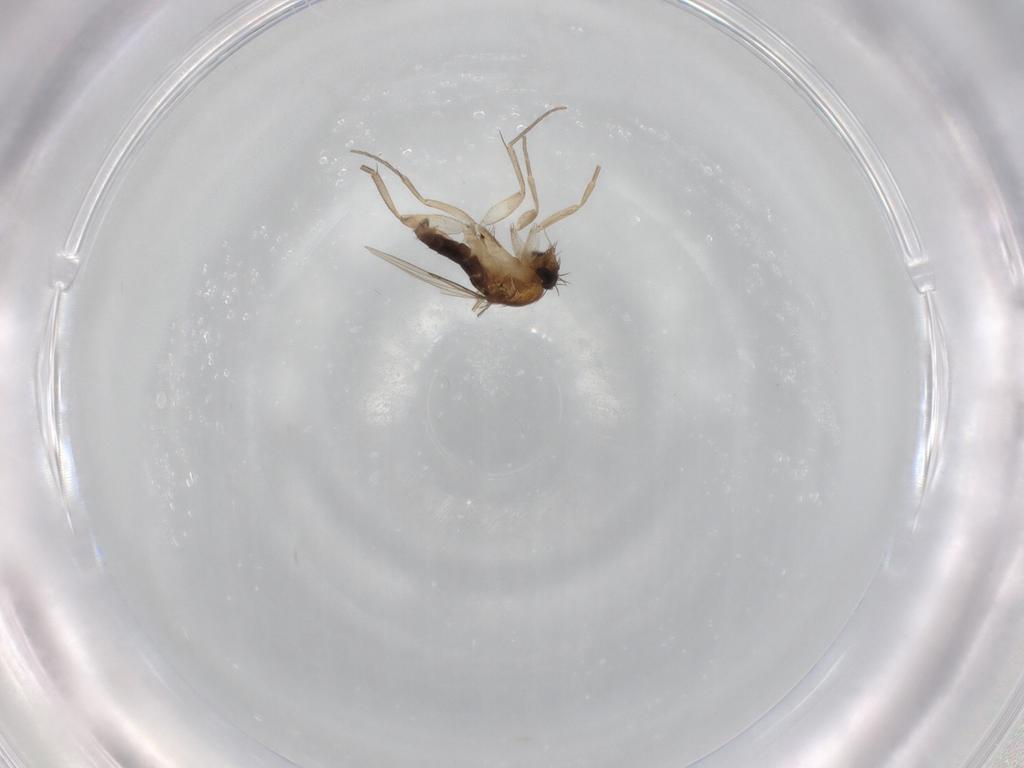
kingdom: Animalia
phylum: Arthropoda
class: Insecta
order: Diptera
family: Phoridae
